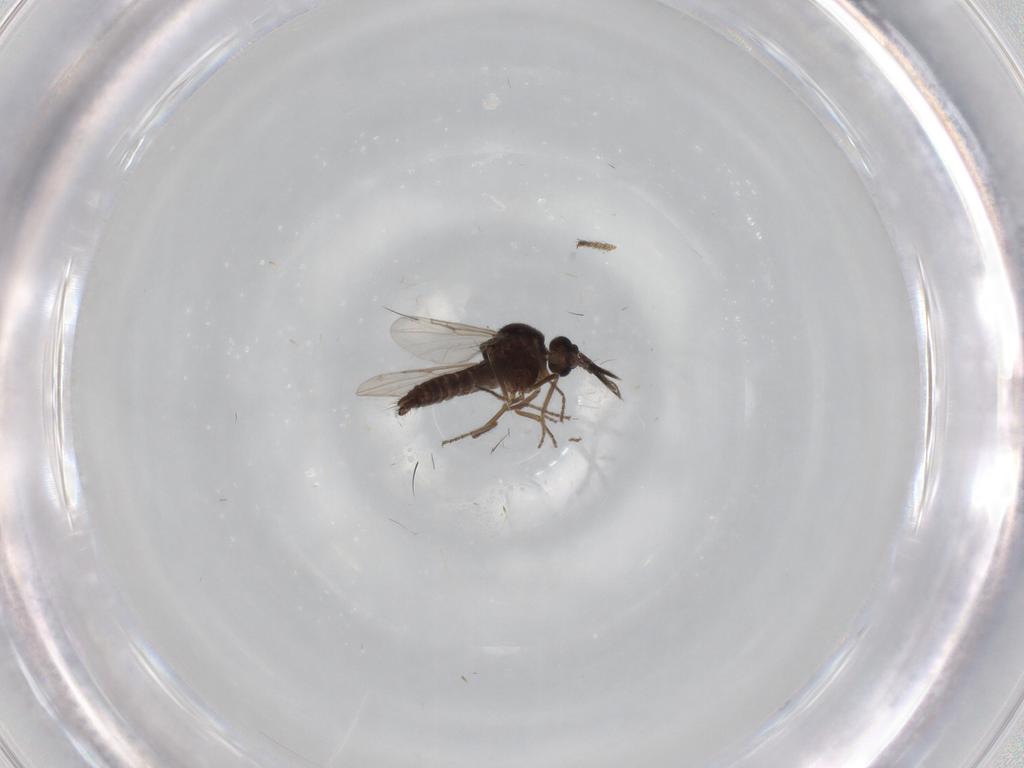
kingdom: Animalia
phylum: Arthropoda
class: Insecta
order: Diptera
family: Ceratopogonidae
